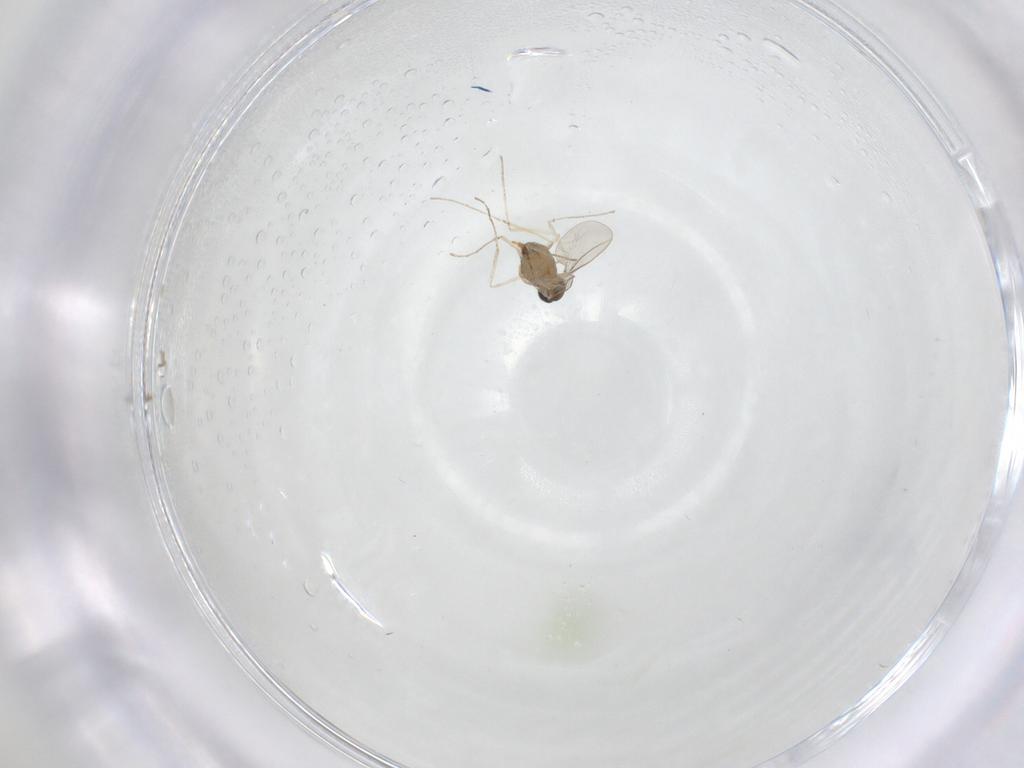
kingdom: Animalia
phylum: Arthropoda
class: Insecta
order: Diptera
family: Cecidomyiidae
